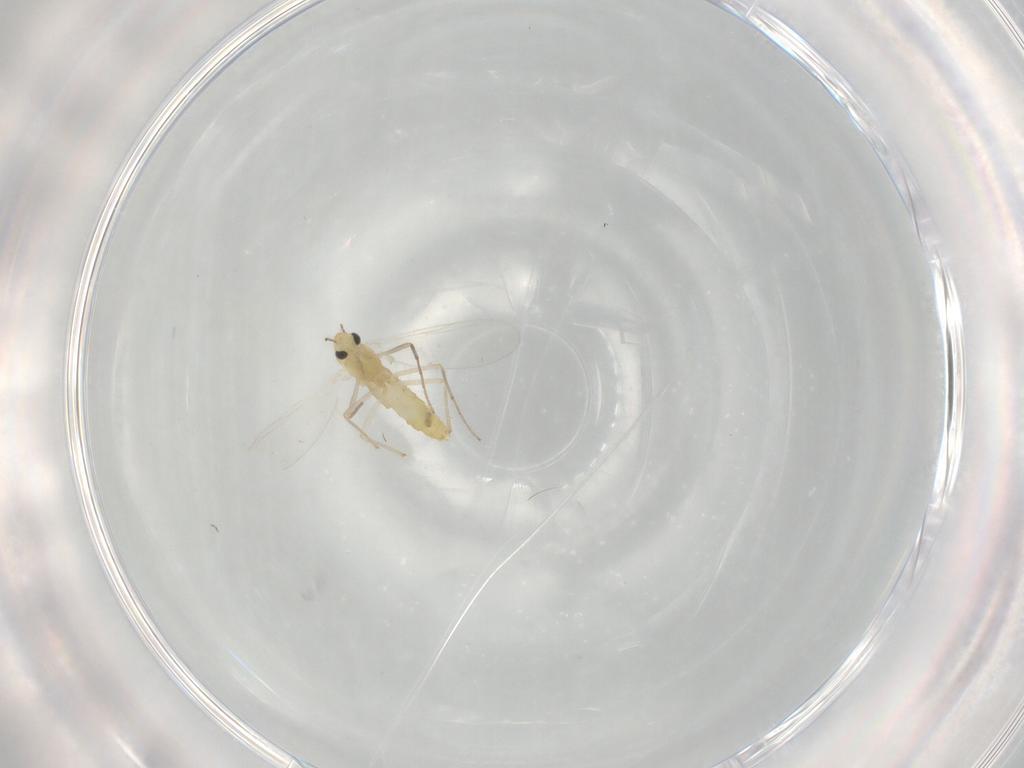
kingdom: Animalia
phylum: Arthropoda
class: Insecta
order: Diptera
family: Chironomidae
